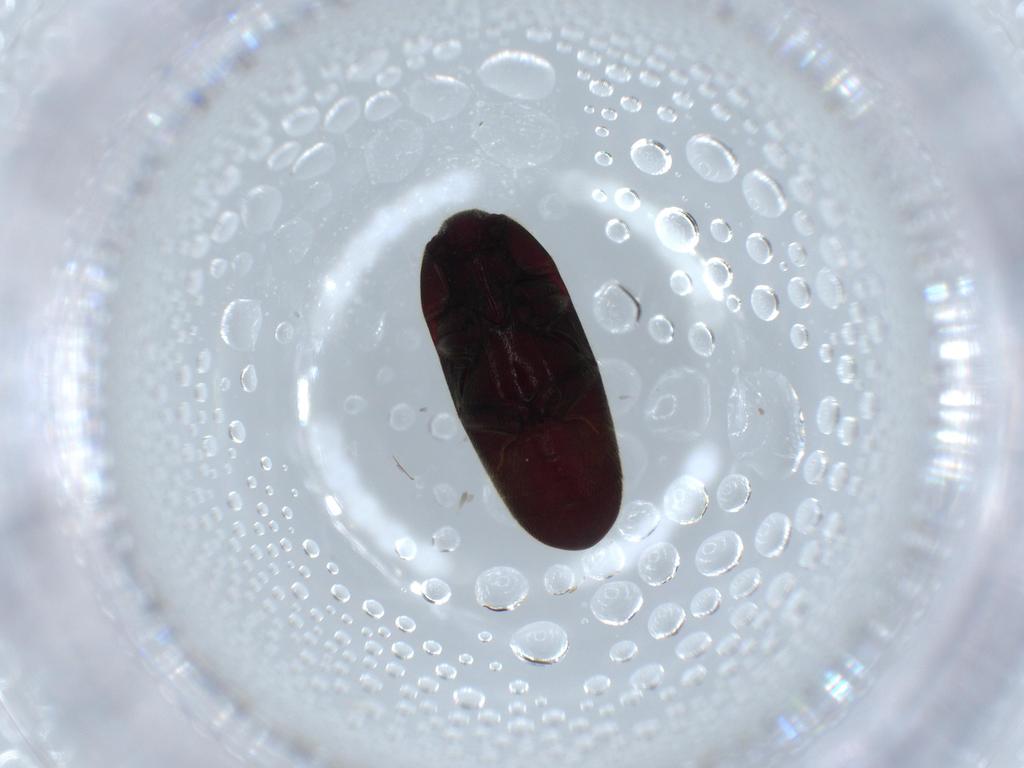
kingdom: Animalia
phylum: Arthropoda
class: Insecta
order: Coleoptera
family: Throscidae
